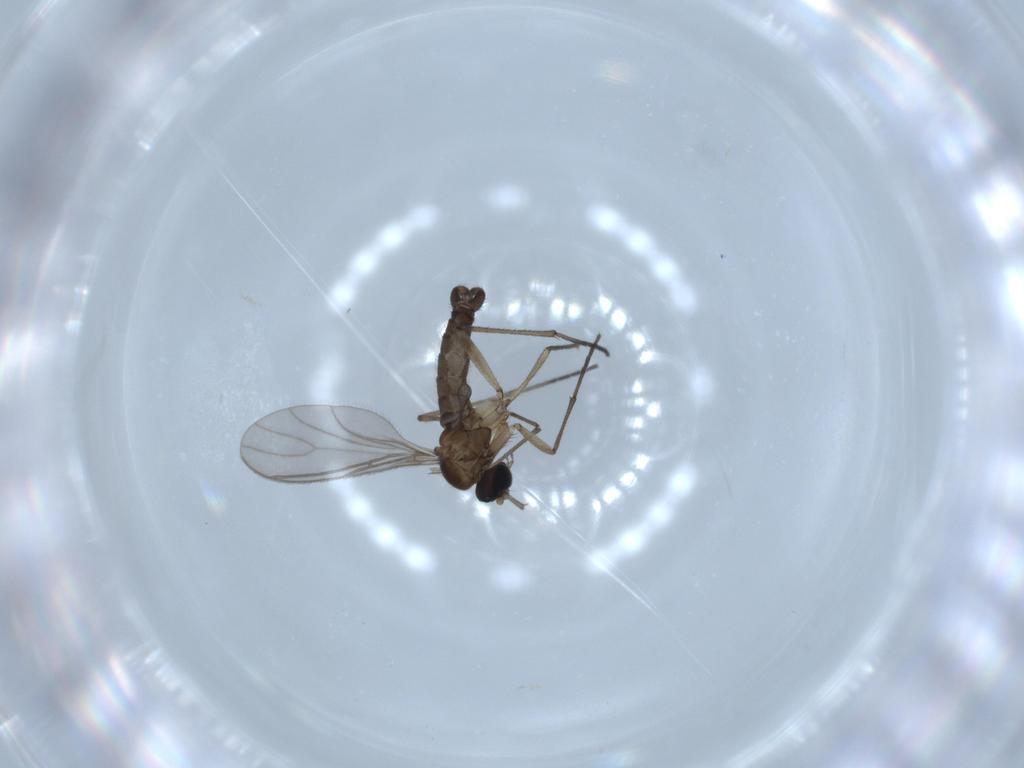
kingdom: Animalia
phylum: Arthropoda
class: Insecta
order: Diptera
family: Sciaridae
